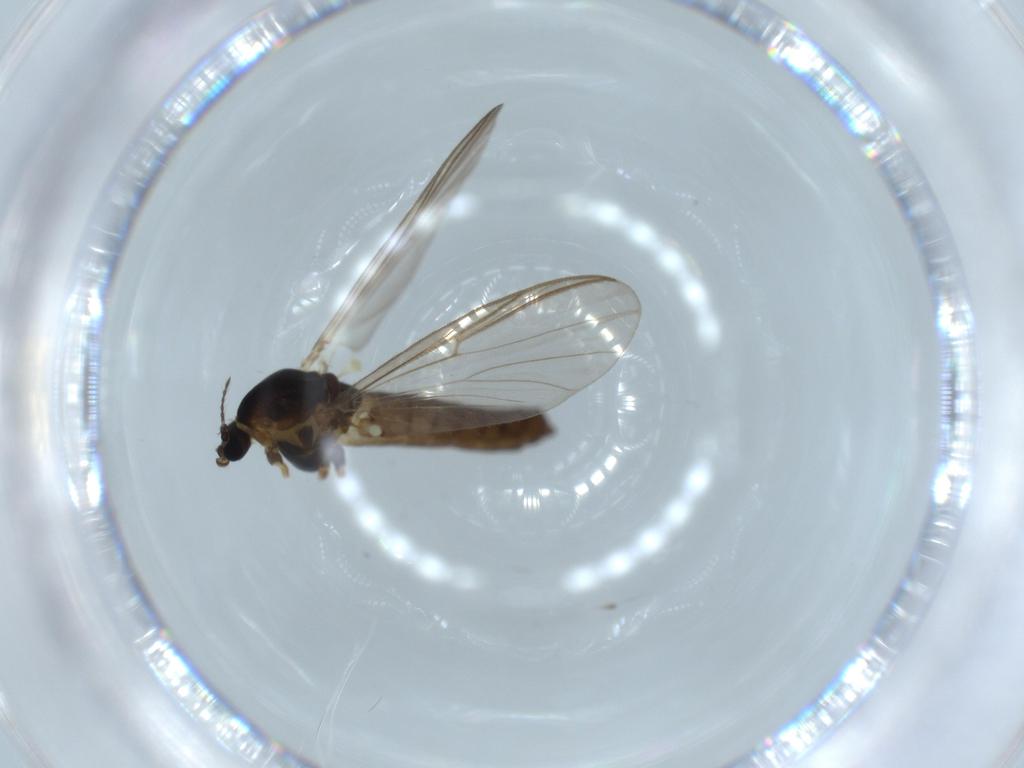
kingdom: Animalia
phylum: Arthropoda
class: Insecta
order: Diptera
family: Chironomidae
